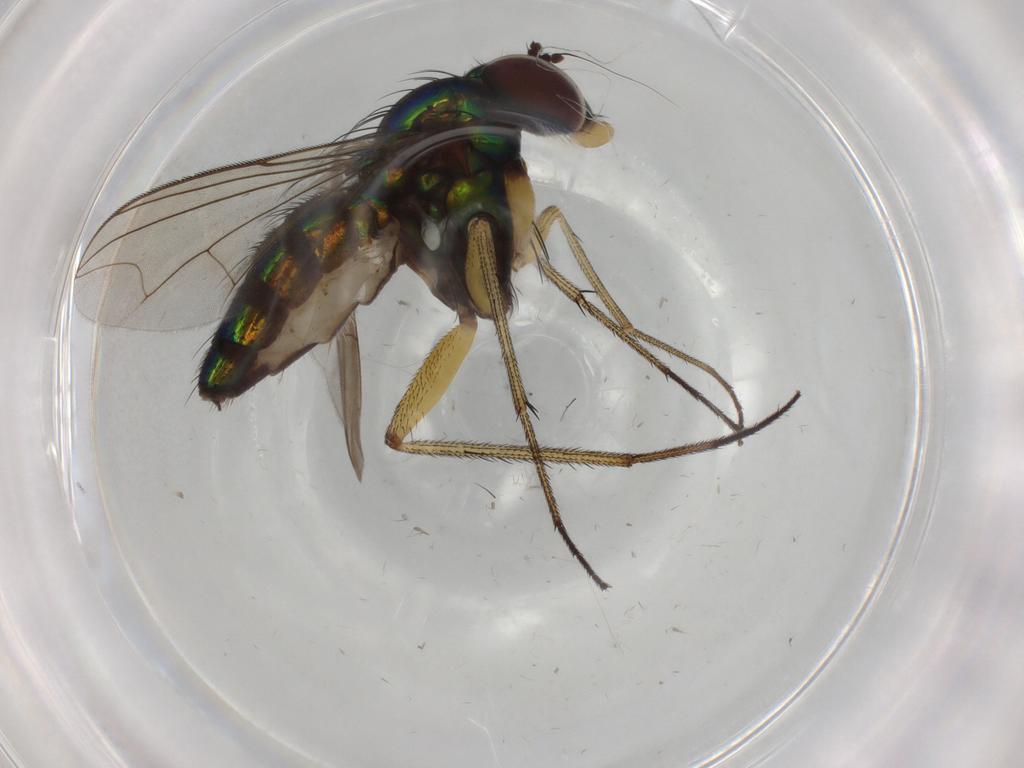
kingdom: Animalia
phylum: Arthropoda
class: Insecta
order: Diptera
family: Dolichopodidae
